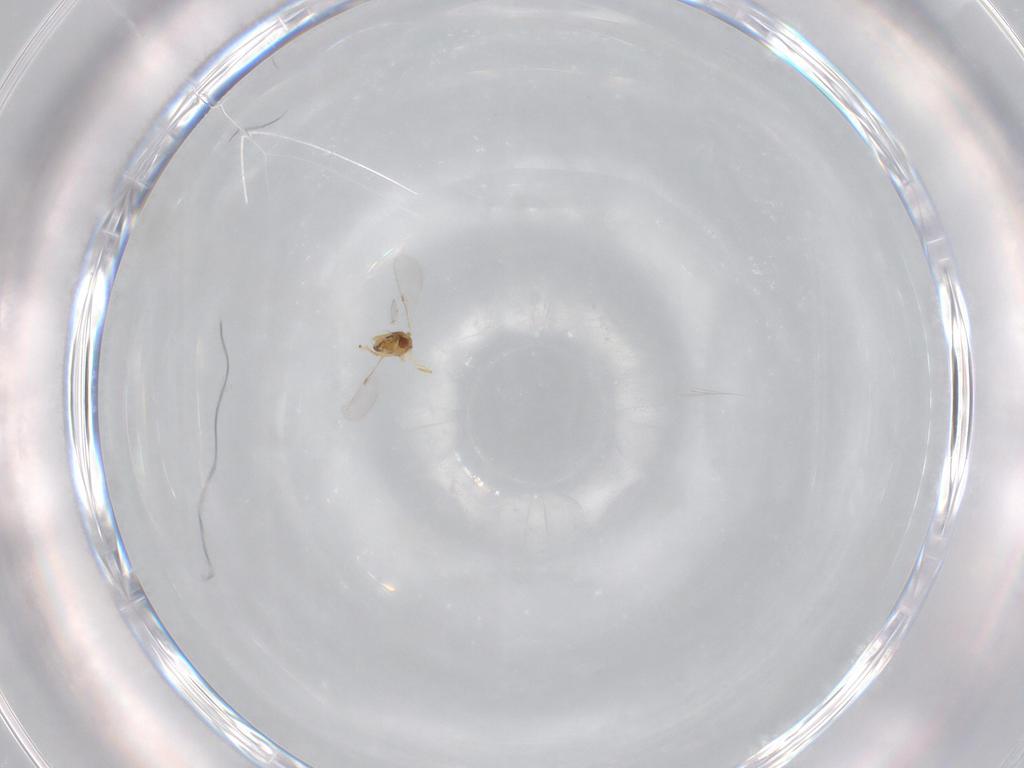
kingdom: Animalia
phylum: Arthropoda
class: Insecta
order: Hymenoptera
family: Encyrtidae
